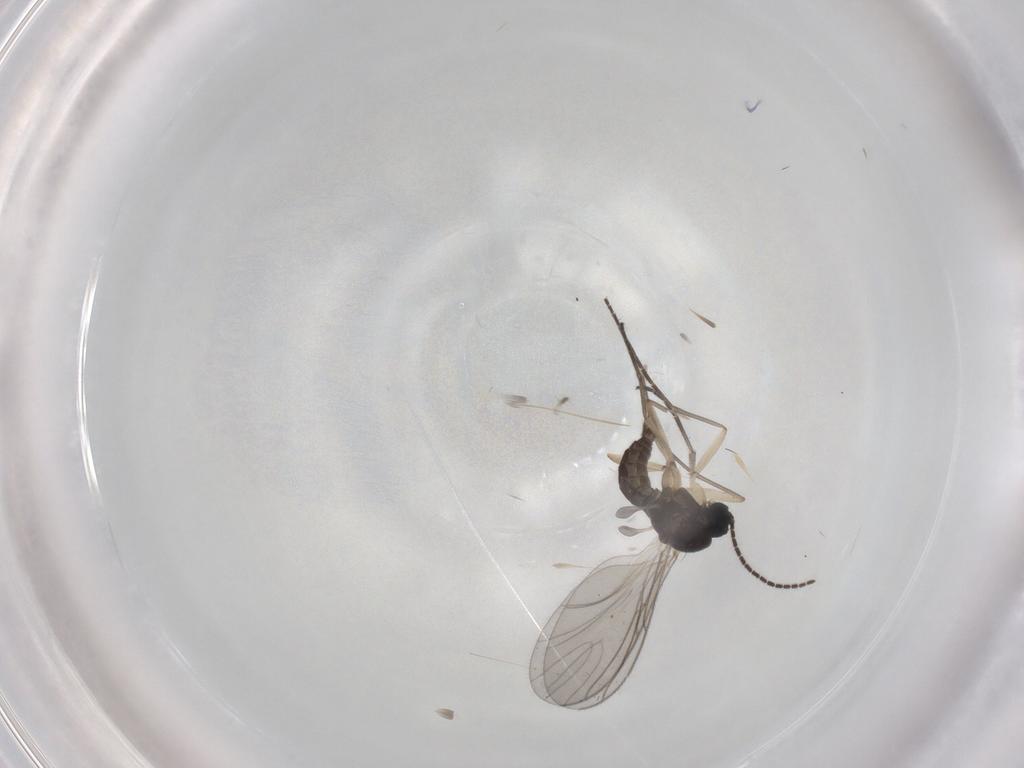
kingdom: Animalia
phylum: Arthropoda
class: Insecta
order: Diptera
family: Sciaridae
